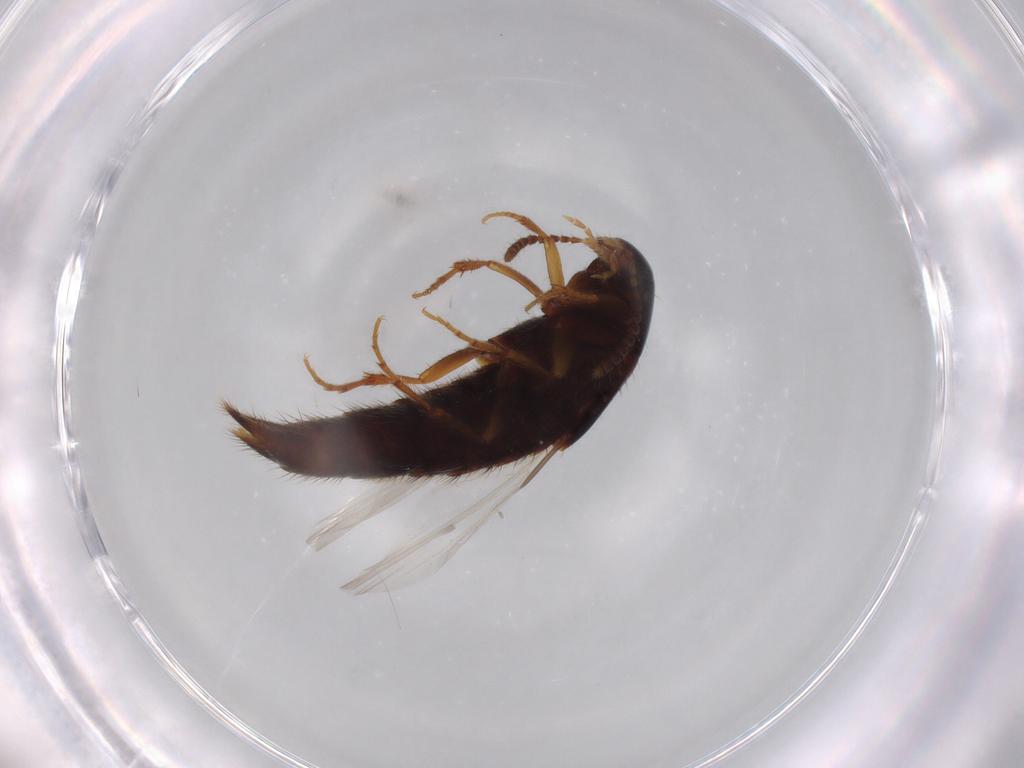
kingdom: Animalia
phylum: Arthropoda
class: Insecta
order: Coleoptera
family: Staphylinidae
